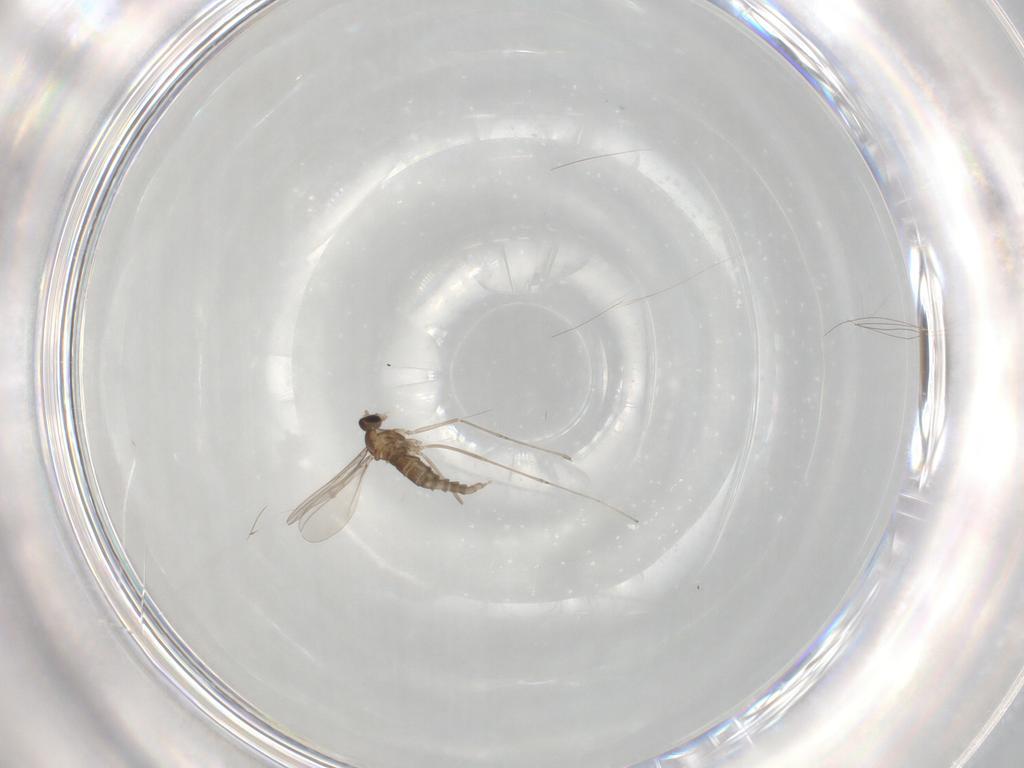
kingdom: Animalia
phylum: Arthropoda
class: Insecta
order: Diptera
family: Ceratopogonidae
